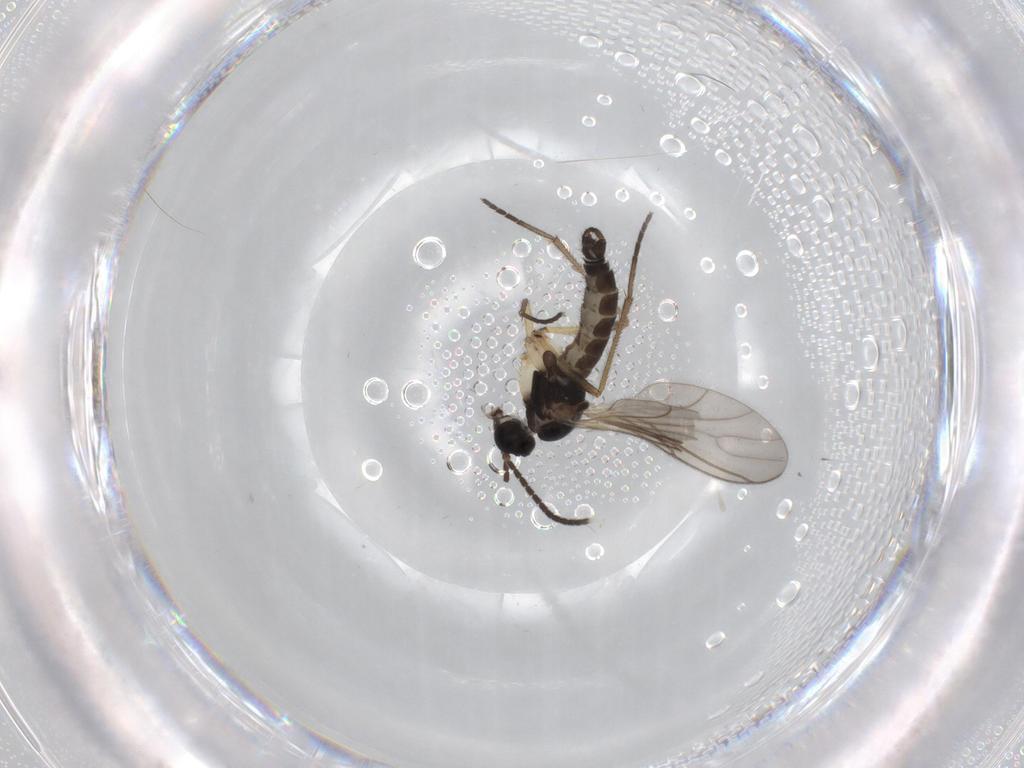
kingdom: Animalia
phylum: Arthropoda
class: Insecta
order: Diptera
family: Sciaridae
